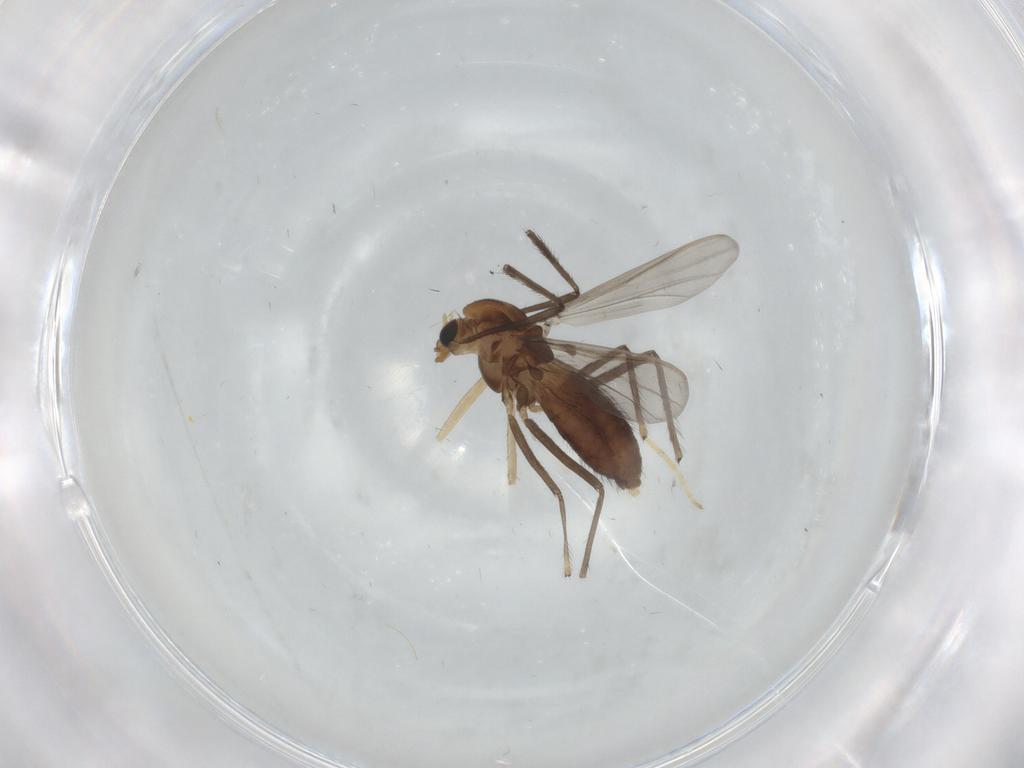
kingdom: Animalia
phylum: Arthropoda
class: Insecta
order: Diptera
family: Chironomidae
